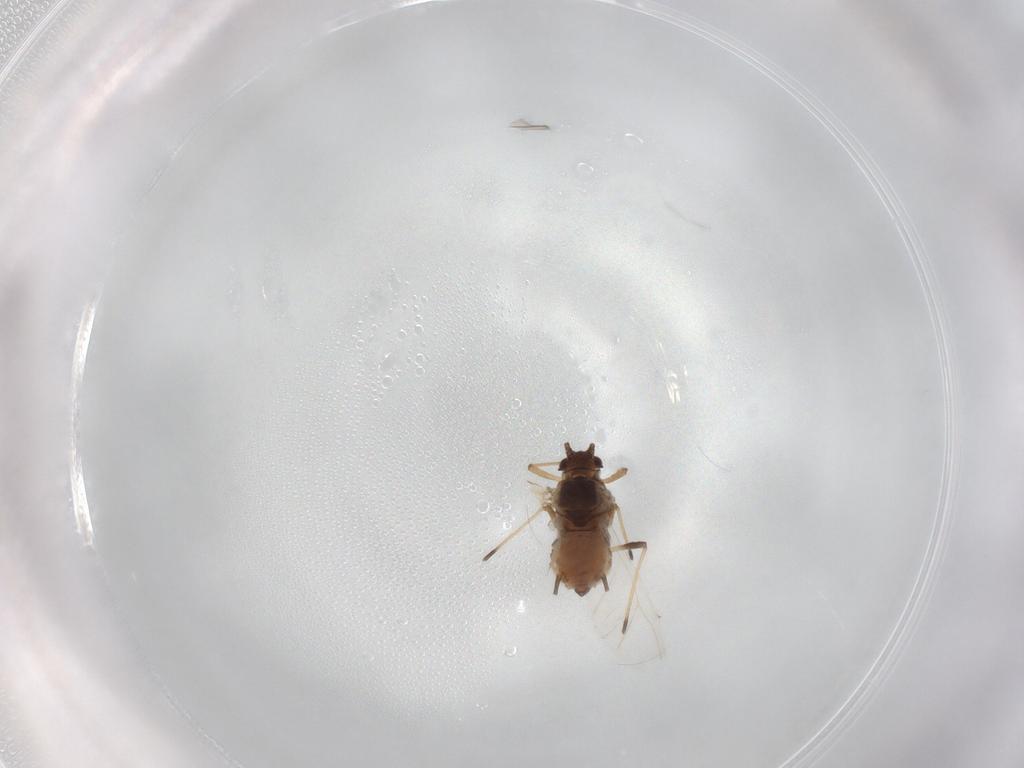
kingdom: Animalia
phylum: Arthropoda
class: Insecta
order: Hemiptera
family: Aphididae
